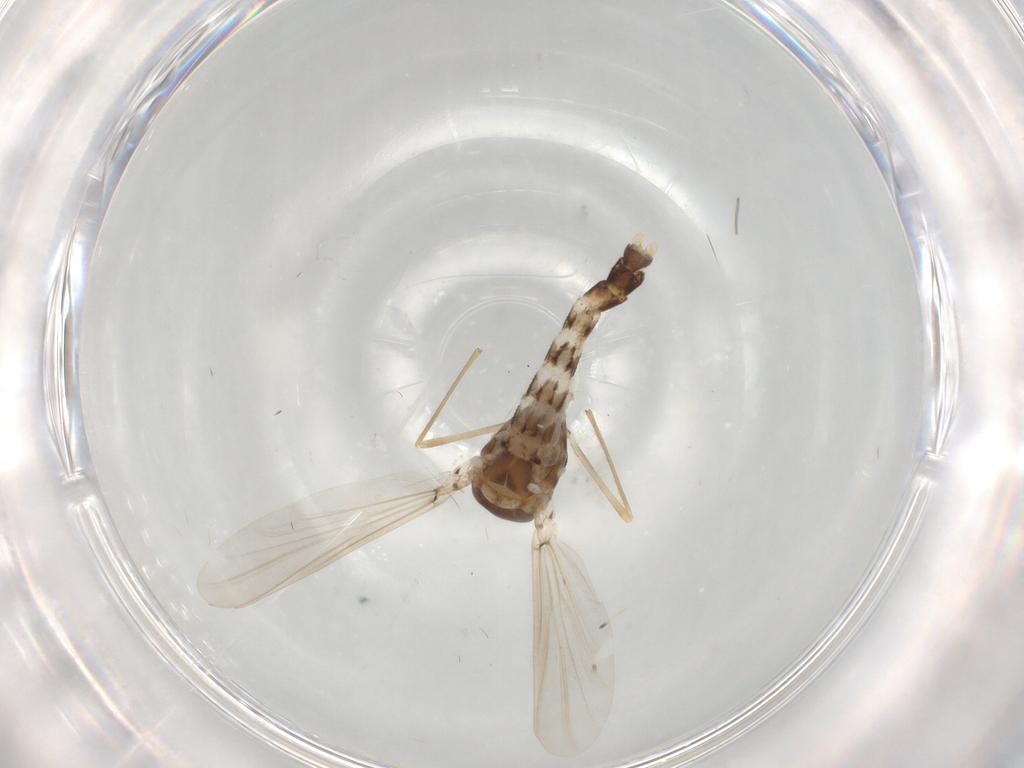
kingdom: Animalia
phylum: Arthropoda
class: Insecta
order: Diptera
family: Chironomidae
